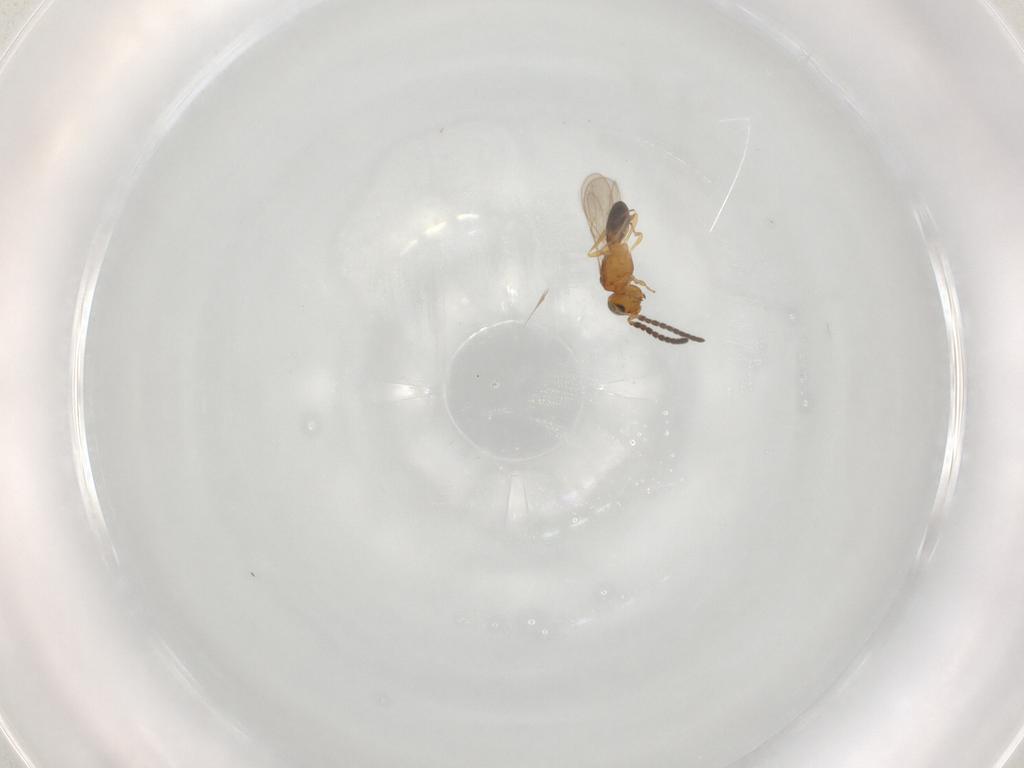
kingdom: Animalia
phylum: Arthropoda
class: Insecta
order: Hymenoptera
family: Scelionidae
